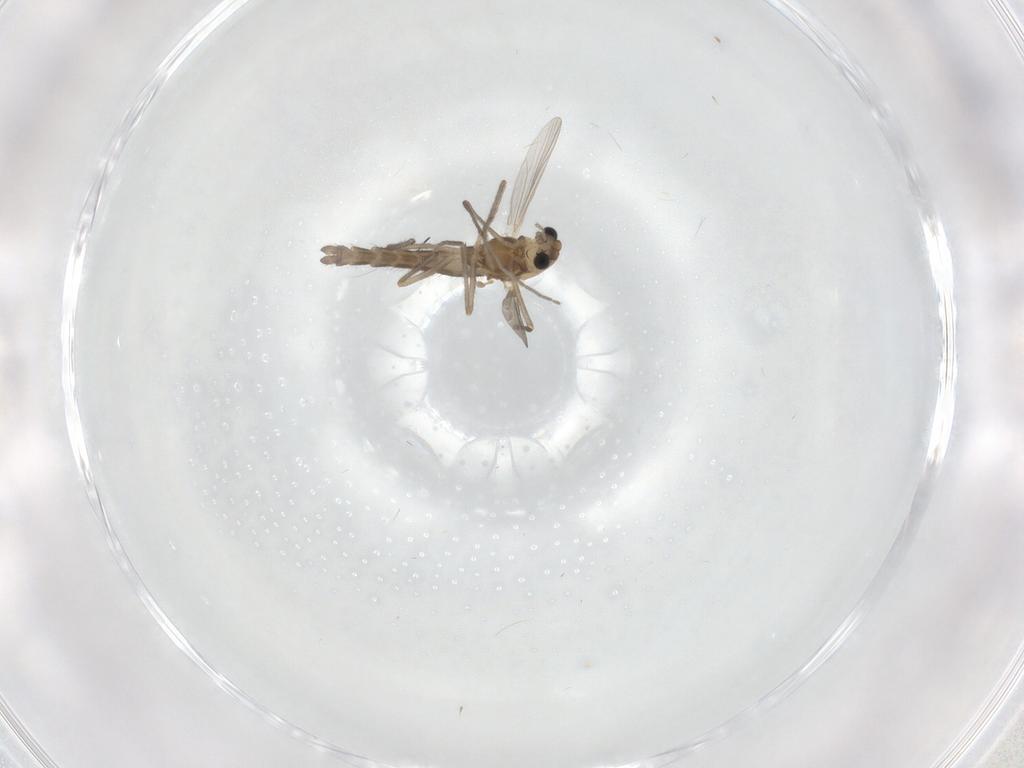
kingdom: Animalia
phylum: Arthropoda
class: Insecta
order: Diptera
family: Chironomidae
